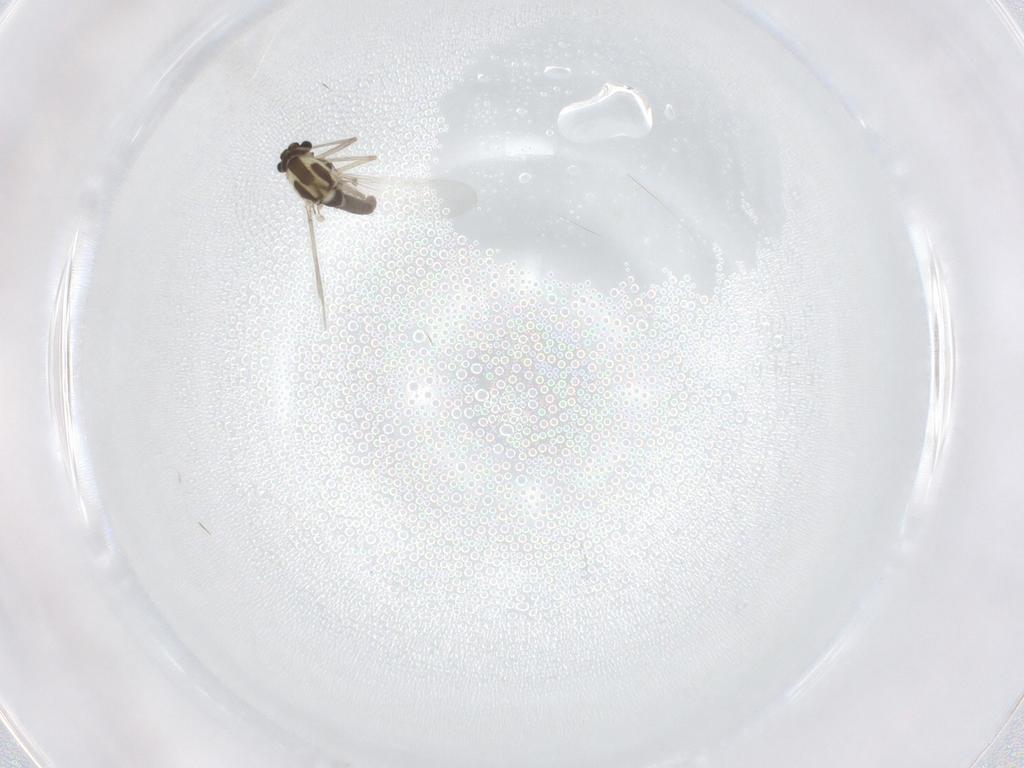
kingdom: Animalia
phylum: Arthropoda
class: Insecta
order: Diptera
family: Chironomidae
